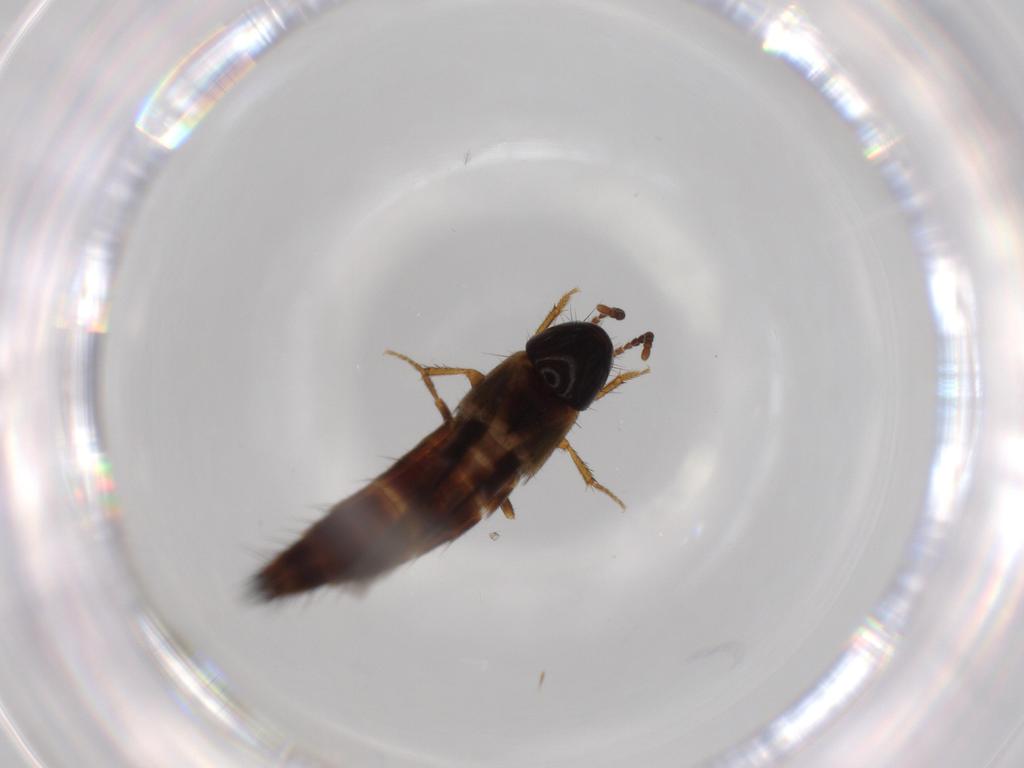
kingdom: Animalia
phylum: Arthropoda
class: Insecta
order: Coleoptera
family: Staphylinidae
